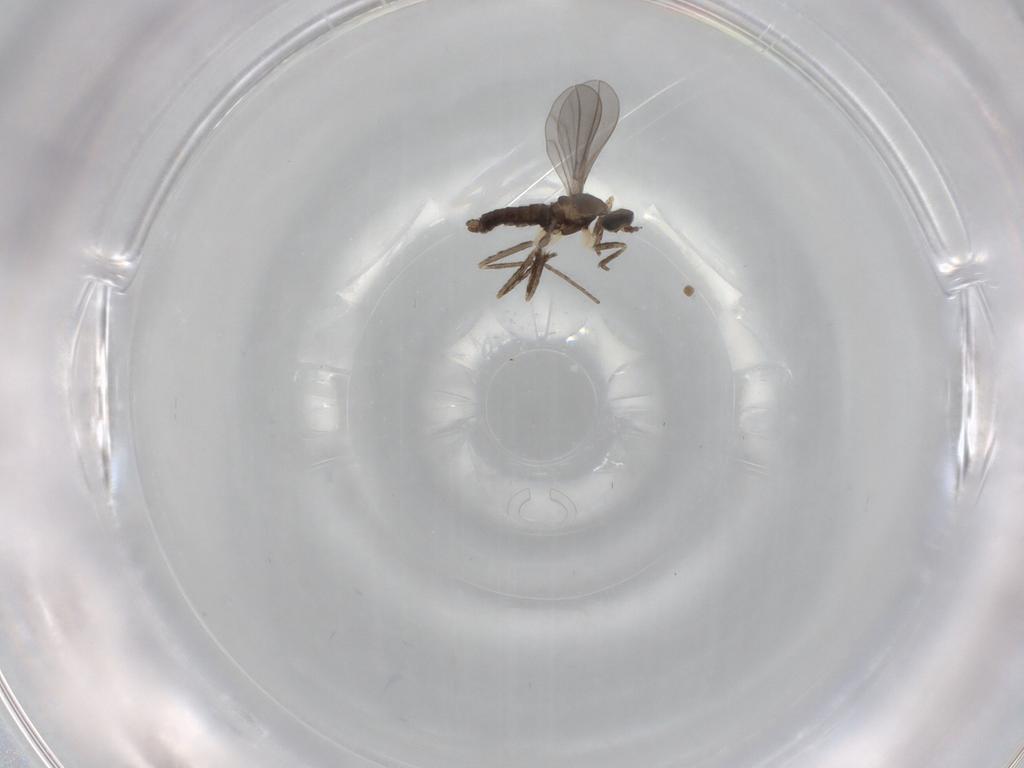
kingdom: Animalia
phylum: Arthropoda
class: Insecta
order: Diptera
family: Cecidomyiidae
